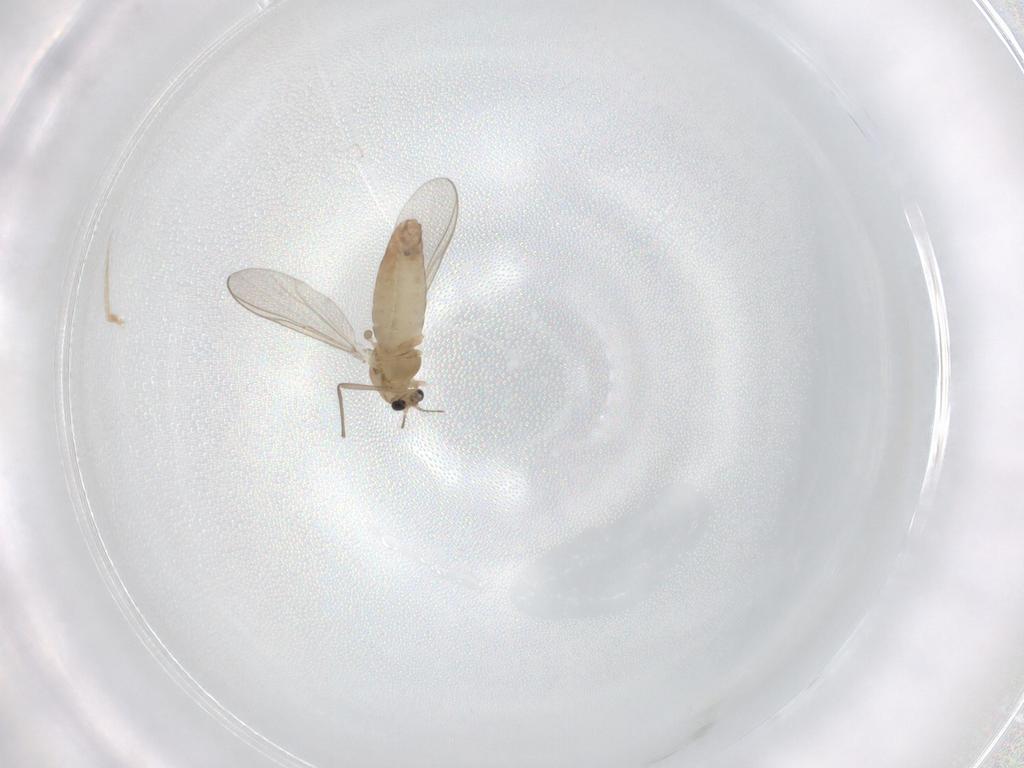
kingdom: Animalia
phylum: Arthropoda
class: Insecta
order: Diptera
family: Chironomidae
